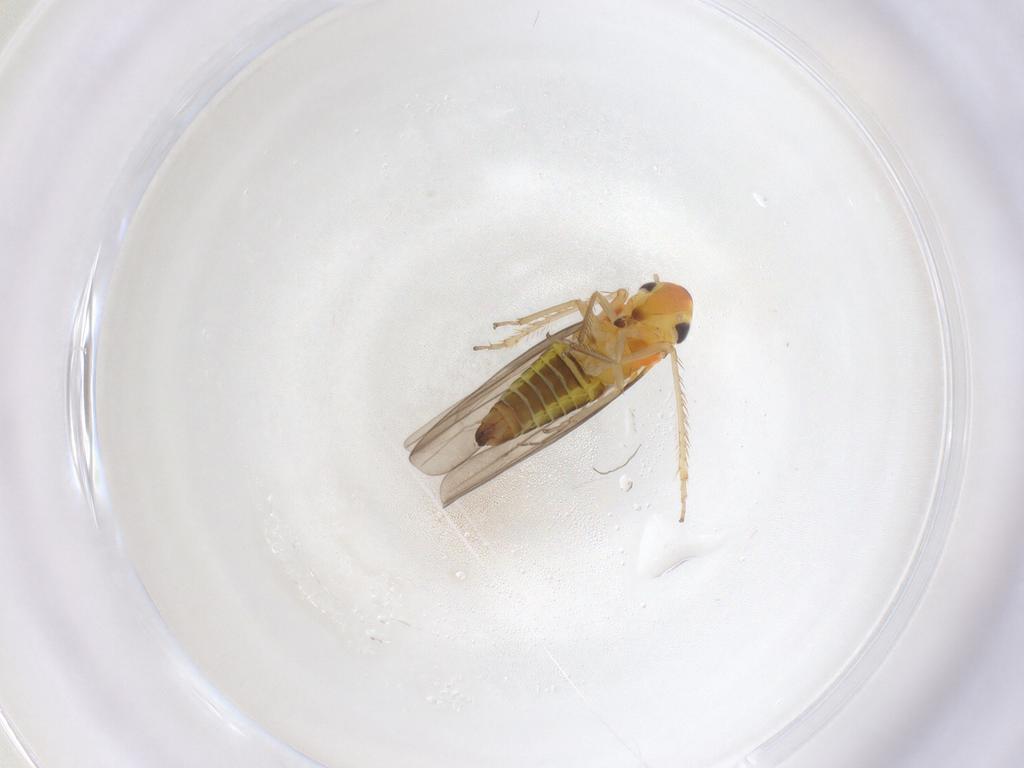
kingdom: Animalia
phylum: Arthropoda
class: Insecta
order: Hemiptera
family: Cicadellidae
